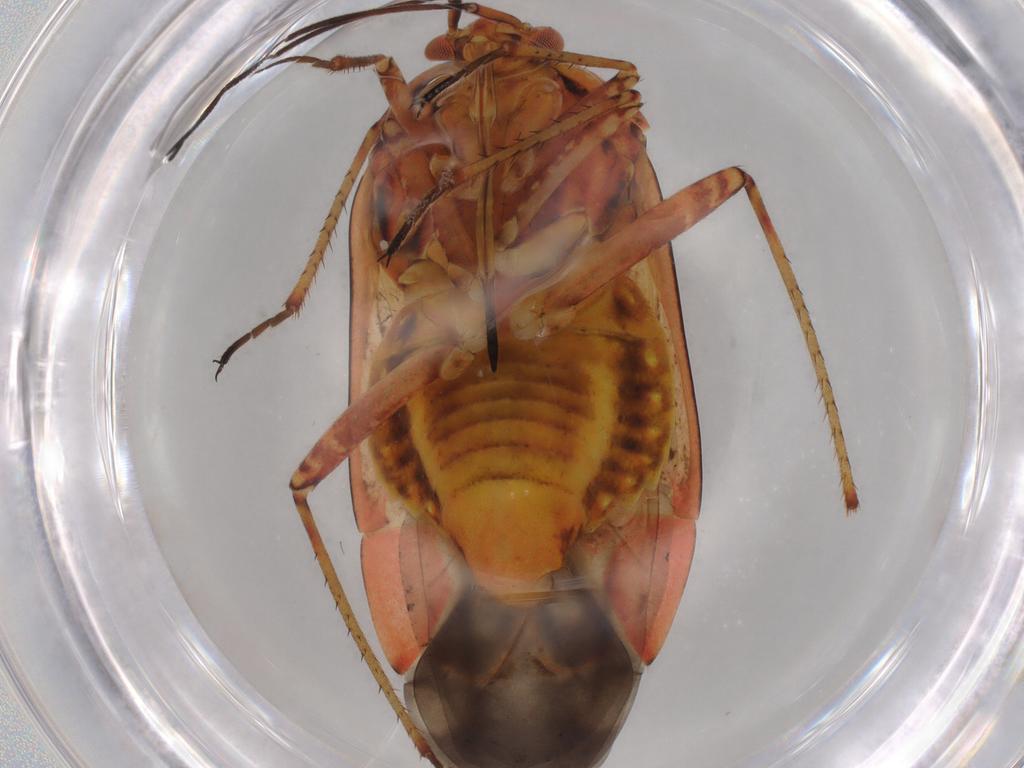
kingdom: Animalia
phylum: Arthropoda
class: Insecta
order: Hemiptera
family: Miridae
